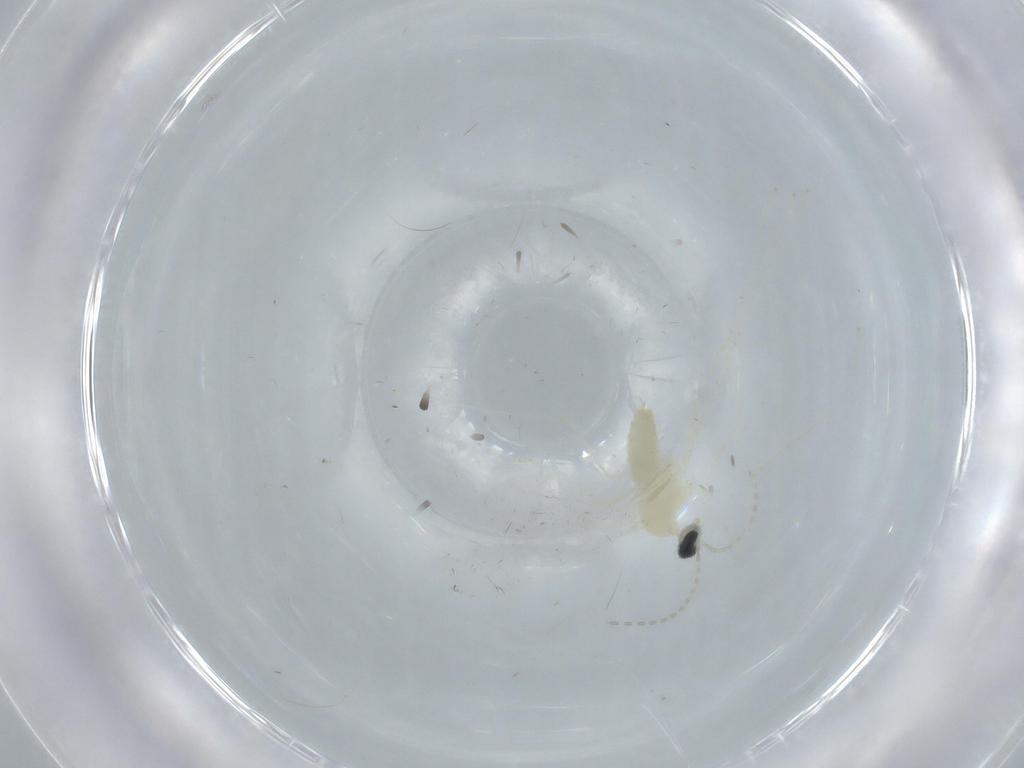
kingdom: Animalia
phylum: Arthropoda
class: Insecta
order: Diptera
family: Cecidomyiidae
